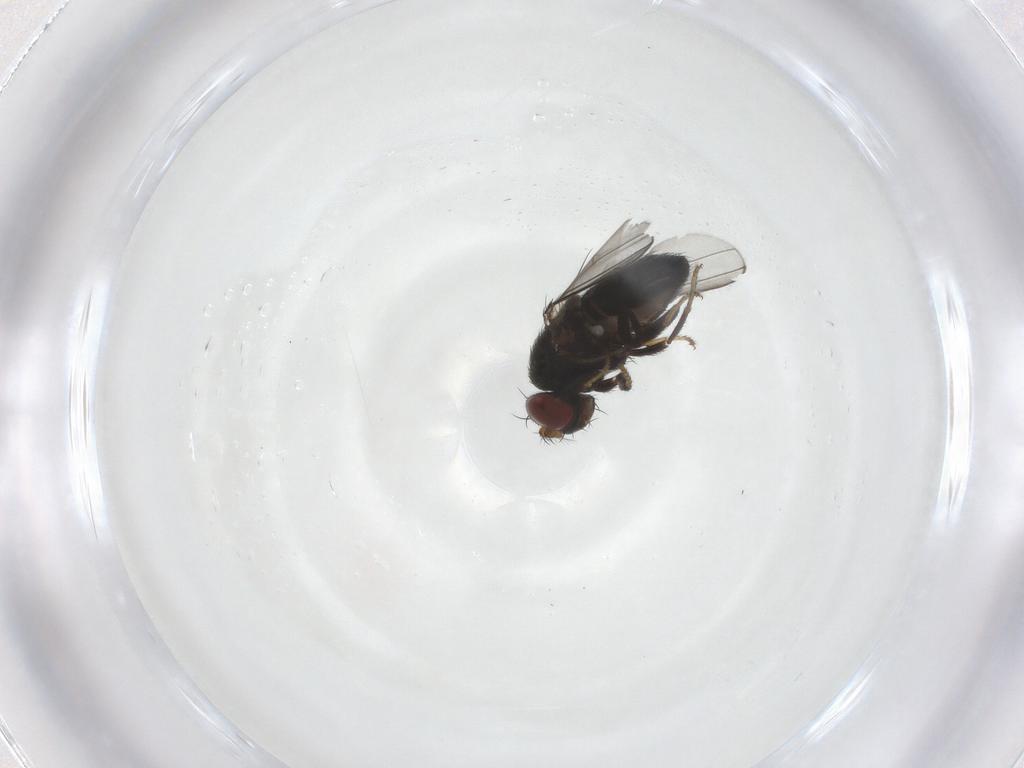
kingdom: Animalia
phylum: Arthropoda
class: Insecta
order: Diptera
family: Ephydridae
